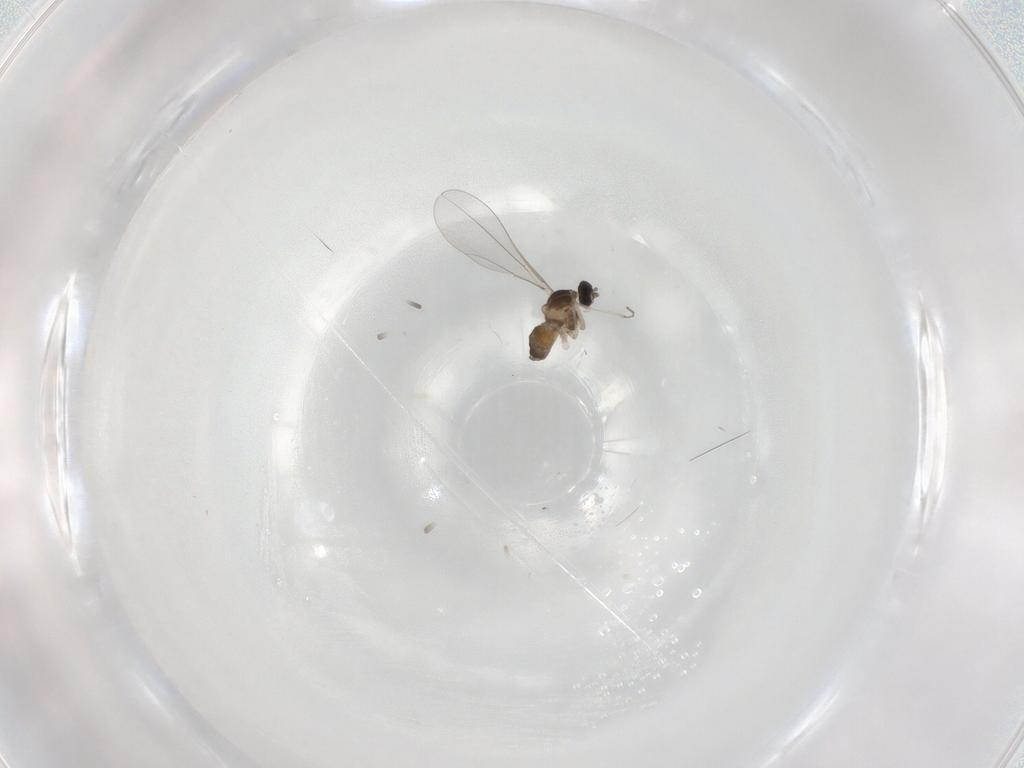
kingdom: Animalia
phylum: Arthropoda
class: Insecta
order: Diptera
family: Cecidomyiidae
